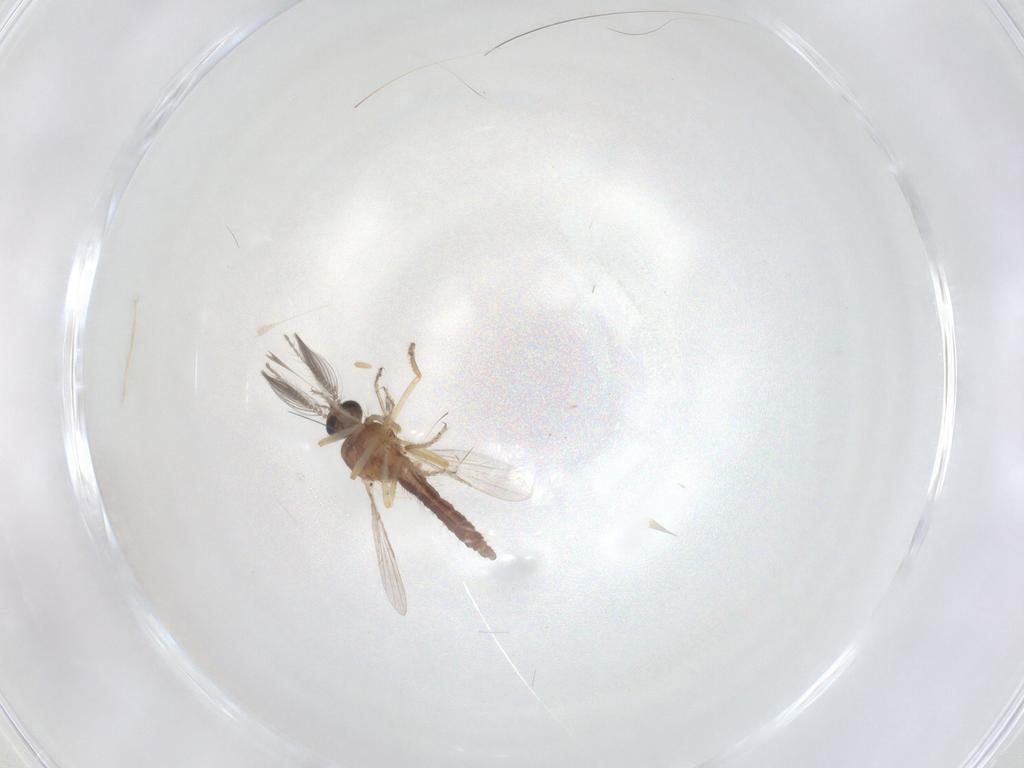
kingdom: Animalia
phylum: Arthropoda
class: Insecta
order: Diptera
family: Ceratopogonidae
